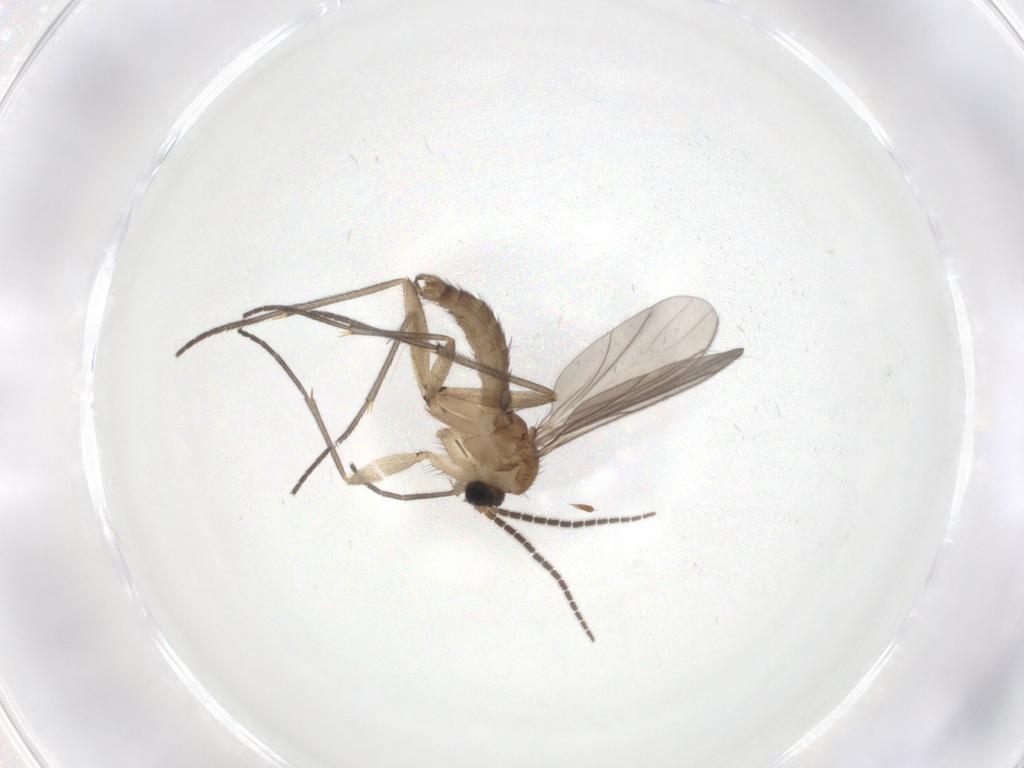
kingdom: Animalia
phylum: Arthropoda
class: Insecta
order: Diptera
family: Sciaridae
